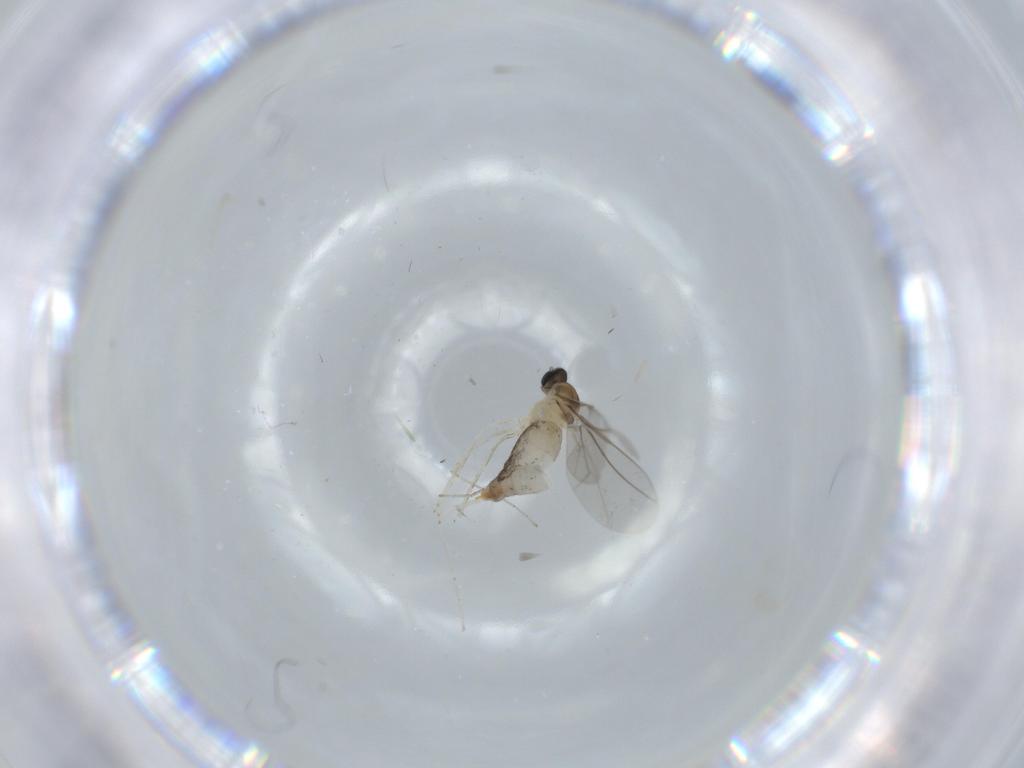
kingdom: Animalia
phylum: Arthropoda
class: Insecta
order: Diptera
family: Cecidomyiidae
